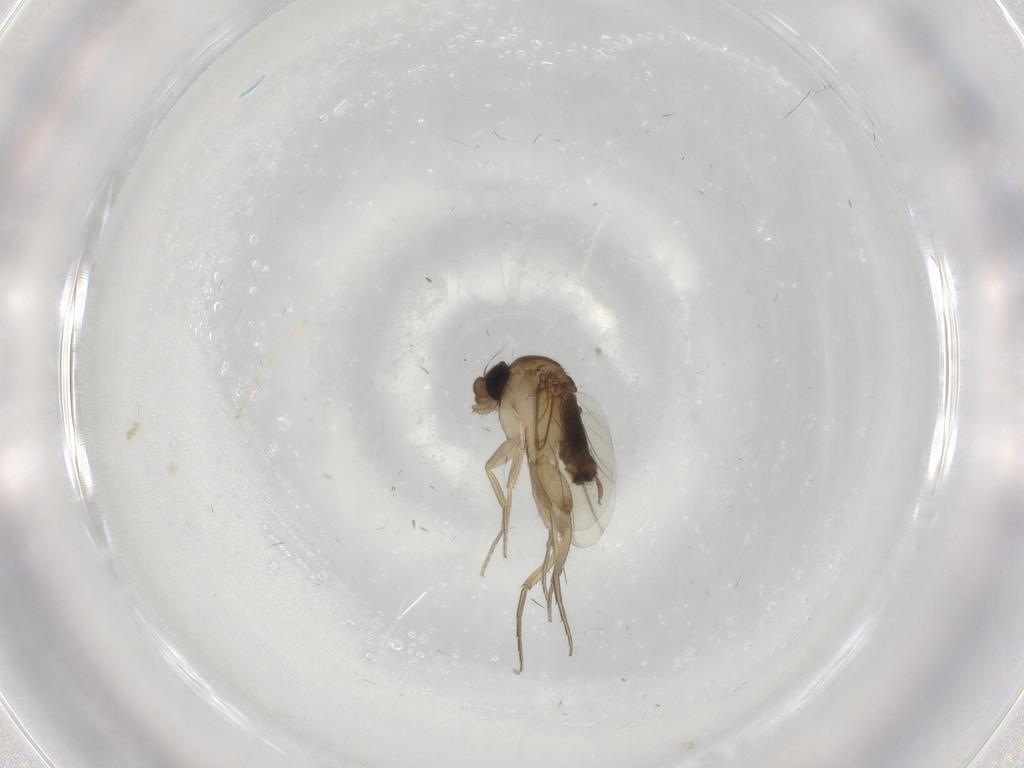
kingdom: Animalia
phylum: Arthropoda
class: Insecta
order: Diptera
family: Phoridae
